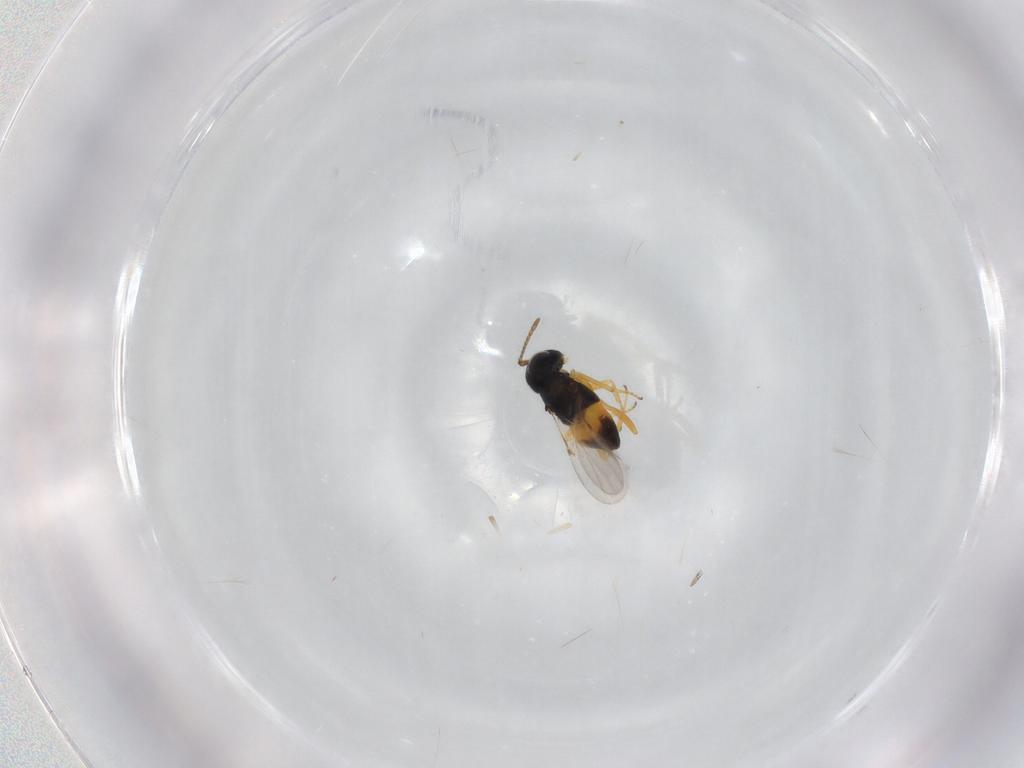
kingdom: Animalia
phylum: Arthropoda
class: Insecta
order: Hymenoptera
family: Encyrtidae
